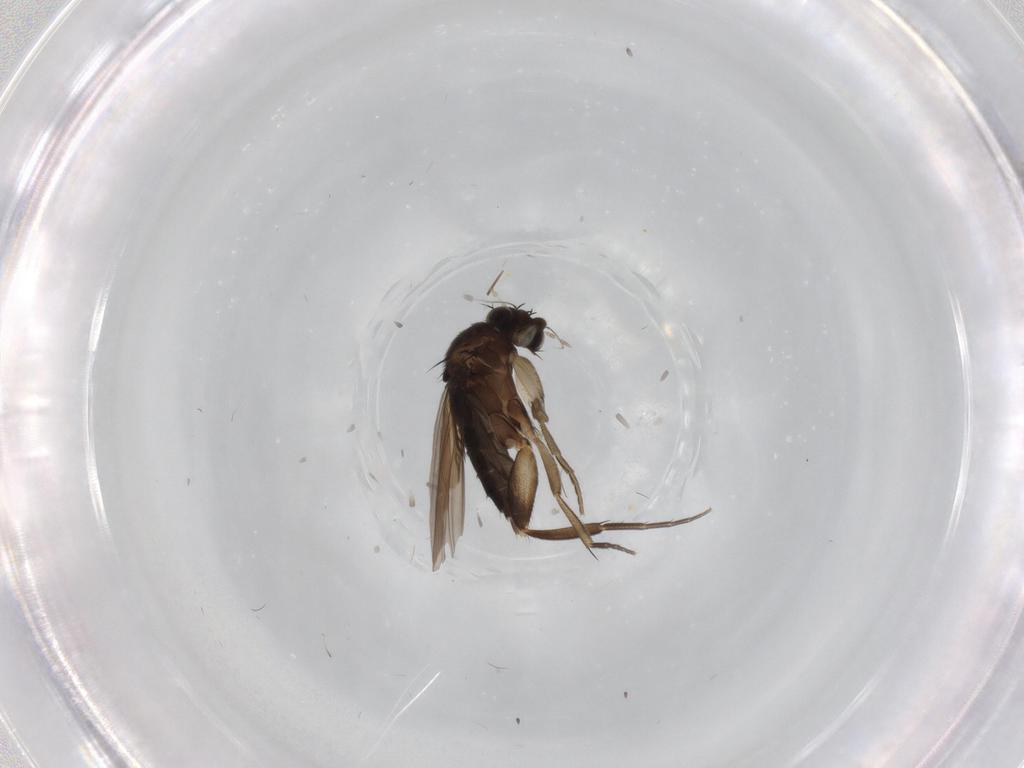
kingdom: Animalia
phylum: Arthropoda
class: Insecta
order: Diptera
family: Phoridae
